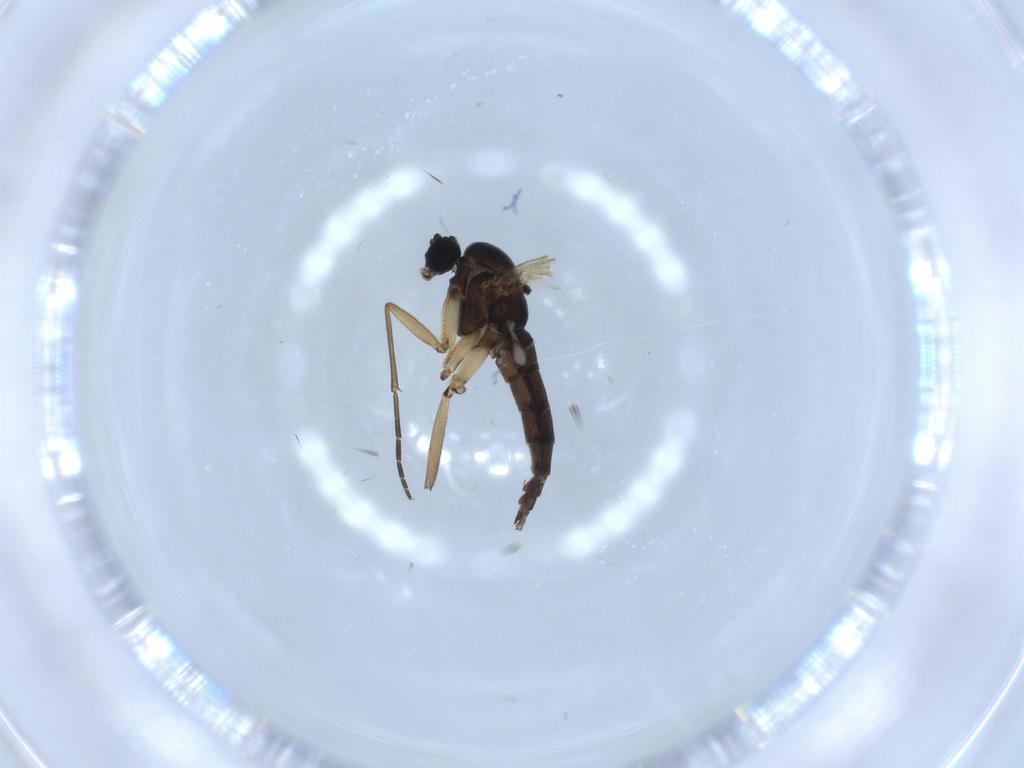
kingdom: Animalia
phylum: Arthropoda
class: Insecta
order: Diptera
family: Sciaridae
